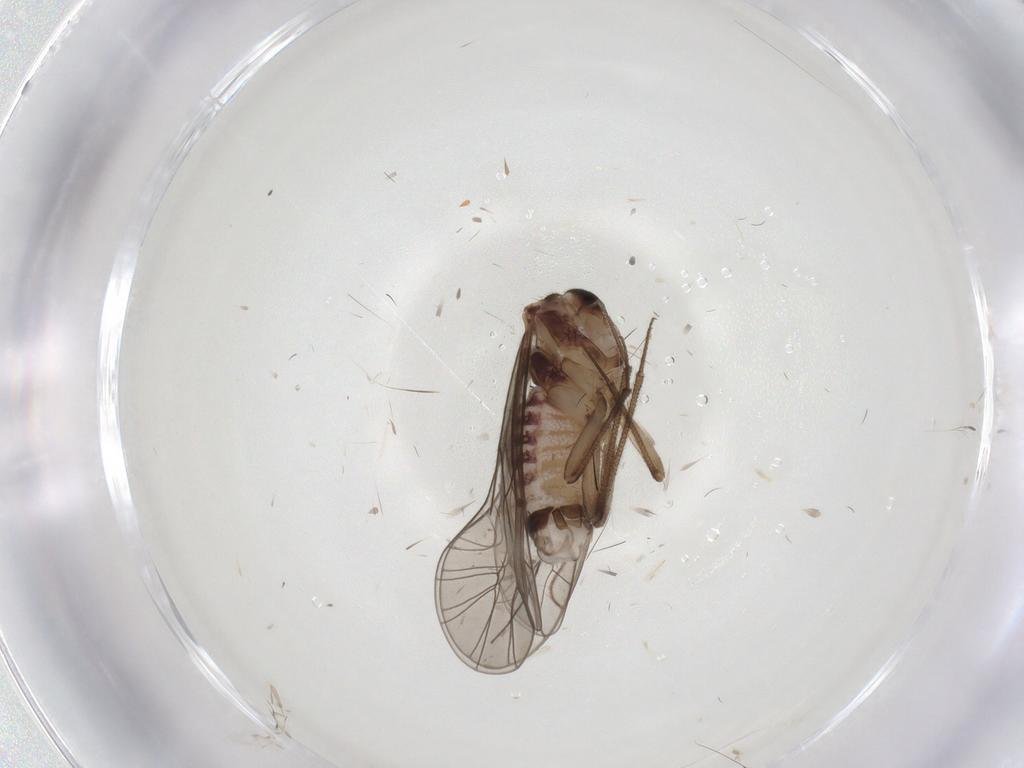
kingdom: Animalia
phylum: Arthropoda
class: Insecta
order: Psocodea
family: Lachesillidae
